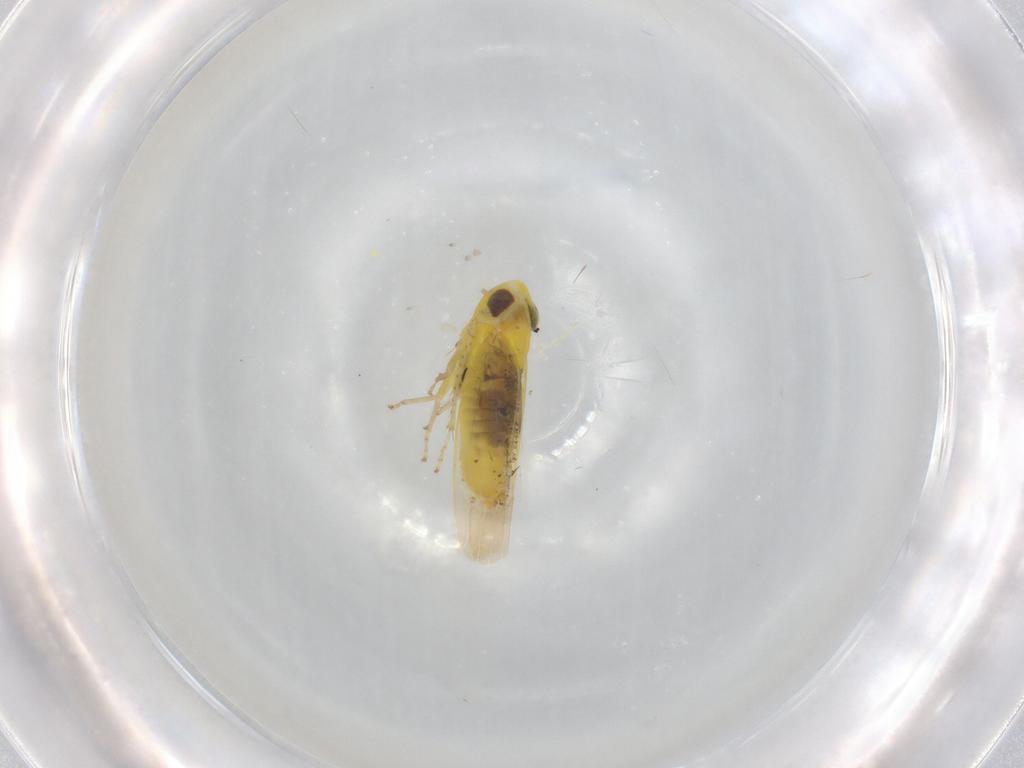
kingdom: Animalia
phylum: Arthropoda
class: Insecta
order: Hemiptera
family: Cicadellidae
